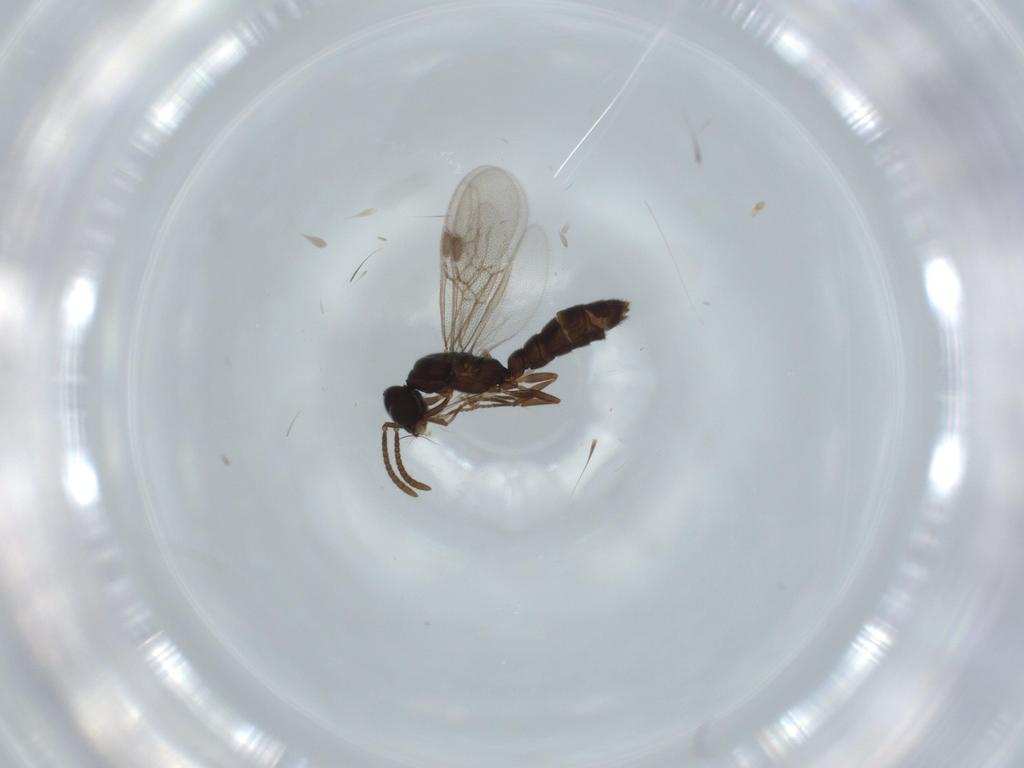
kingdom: Animalia
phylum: Arthropoda
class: Insecta
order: Hymenoptera
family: Formicidae
